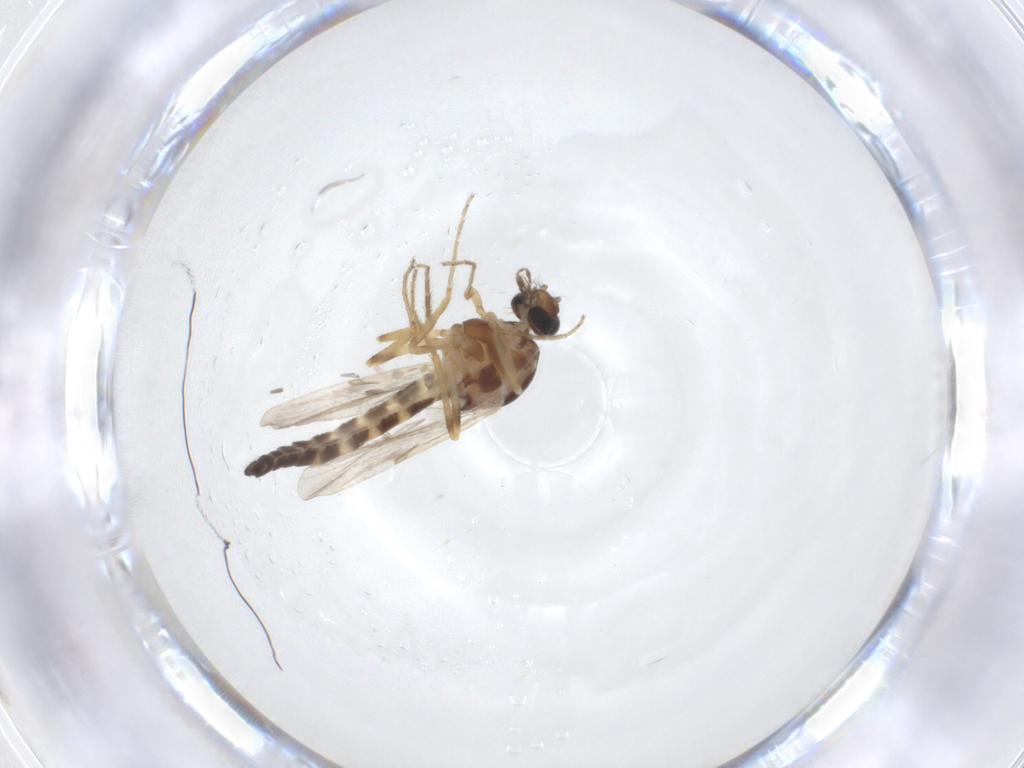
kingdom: Animalia
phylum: Arthropoda
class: Insecta
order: Diptera
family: Ceratopogonidae
